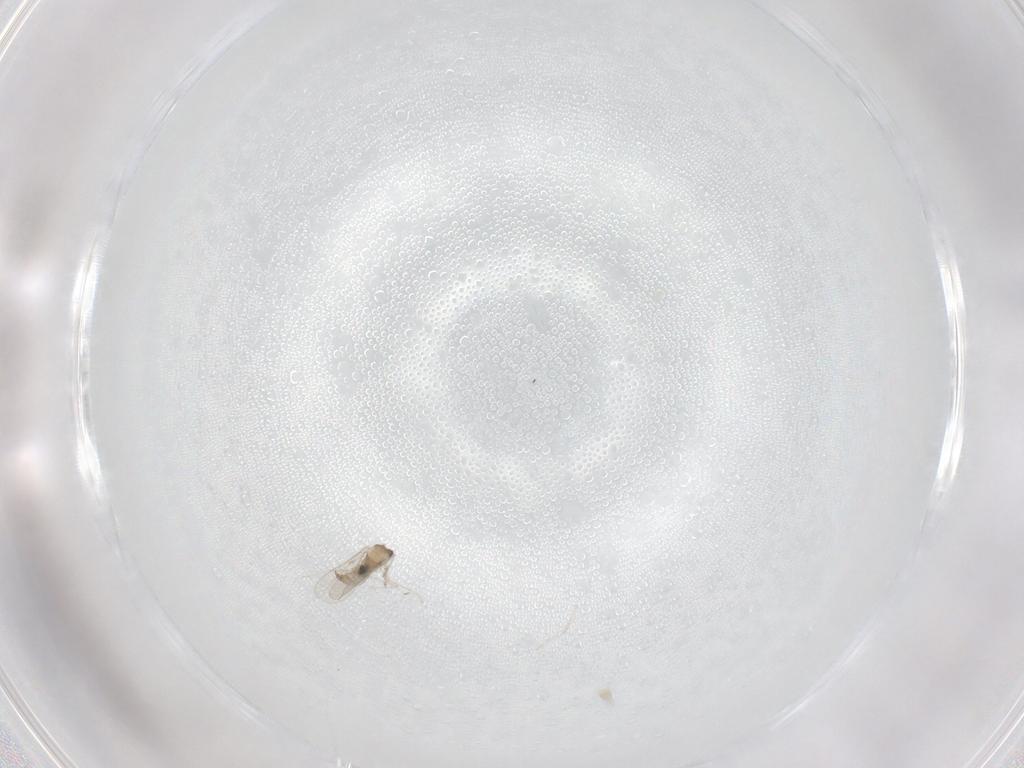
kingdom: Animalia
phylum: Arthropoda
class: Insecta
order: Diptera
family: Cecidomyiidae
